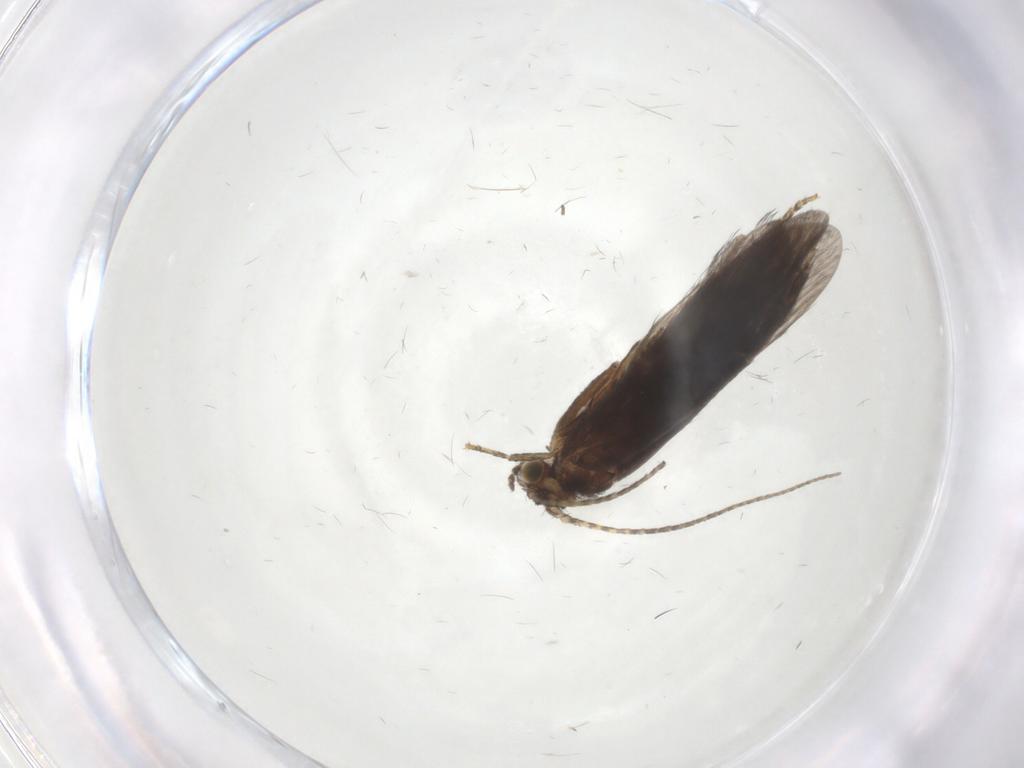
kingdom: Animalia
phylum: Arthropoda
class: Insecta
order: Trichoptera
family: Glossosomatidae
